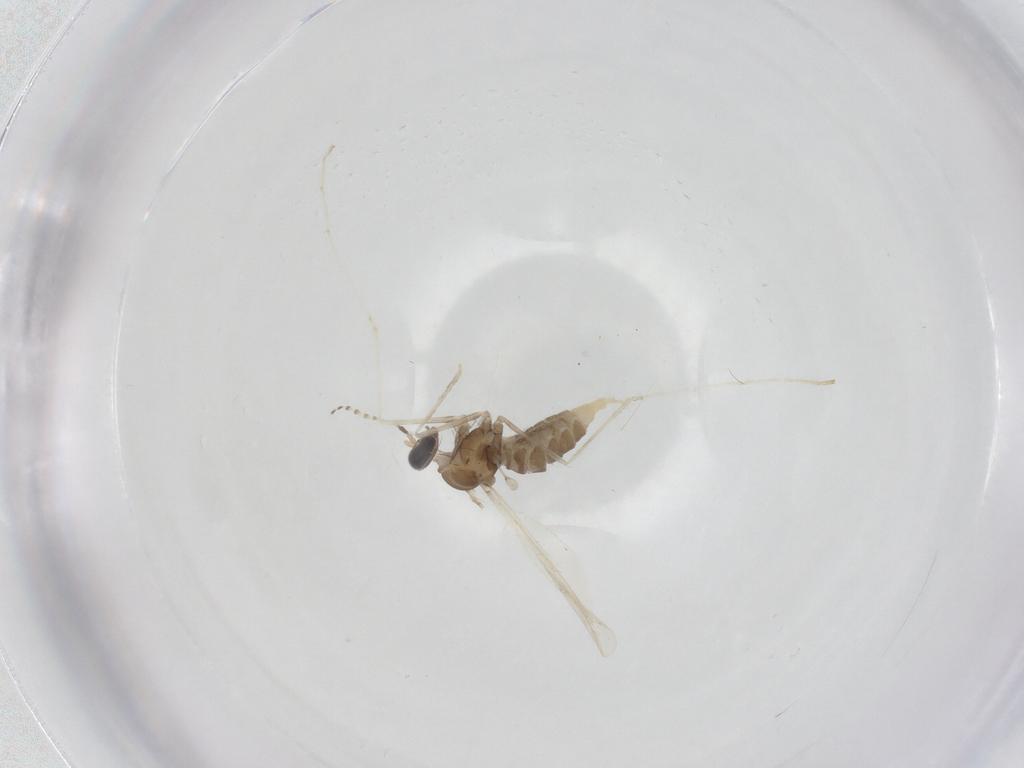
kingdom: Animalia
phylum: Arthropoda
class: Insecta
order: Diptera
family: Cecidomyiidae
